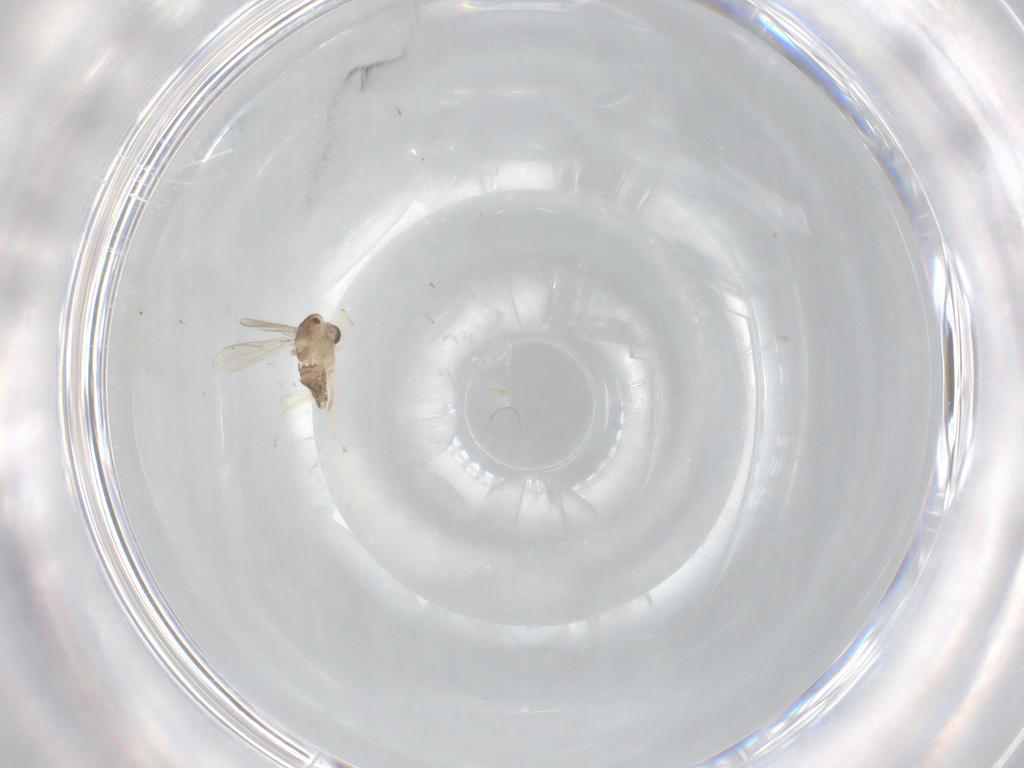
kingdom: Animalia
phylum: Arthropoda
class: Insecta
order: Diptera
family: Chironomidae
